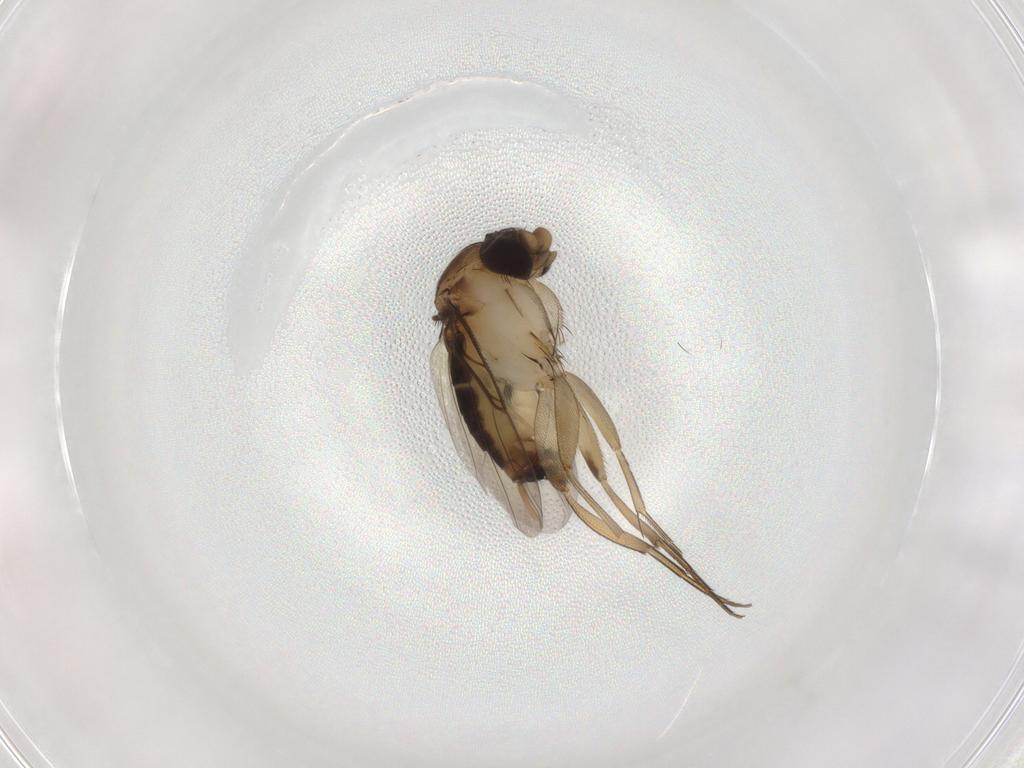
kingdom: Animalia
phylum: Arthropoda
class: Insecta
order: Diptera
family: Phoridae
